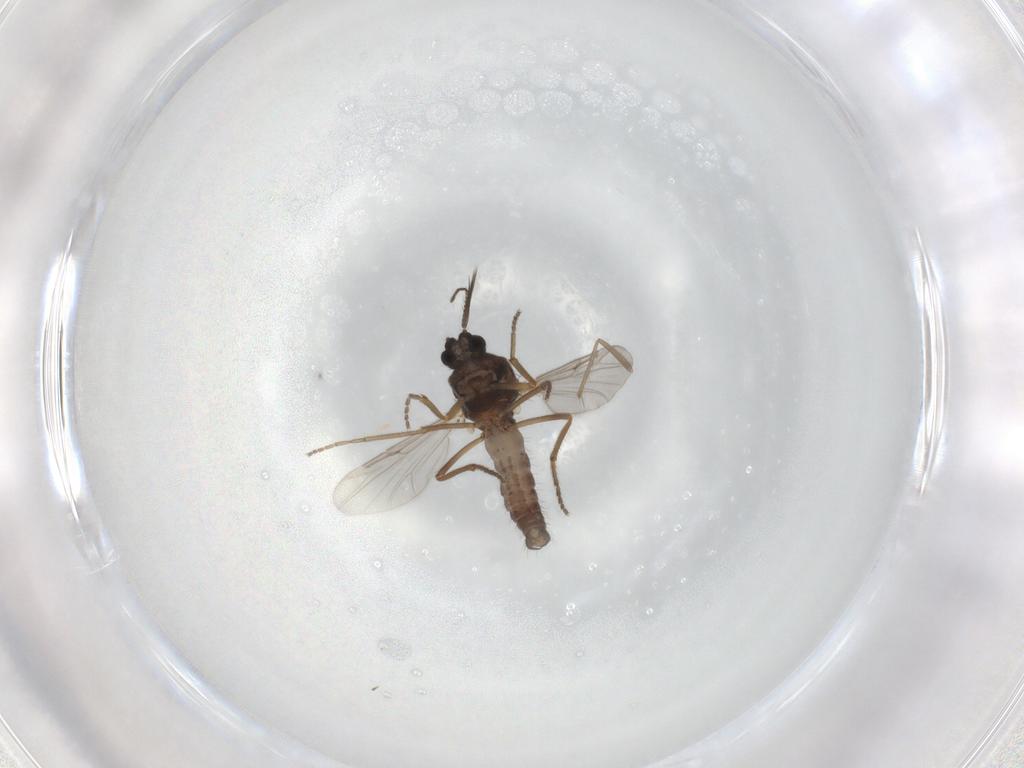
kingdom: Animalia
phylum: Arthropoda
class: Insecta
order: Diptera
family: Ceratopogonidae
